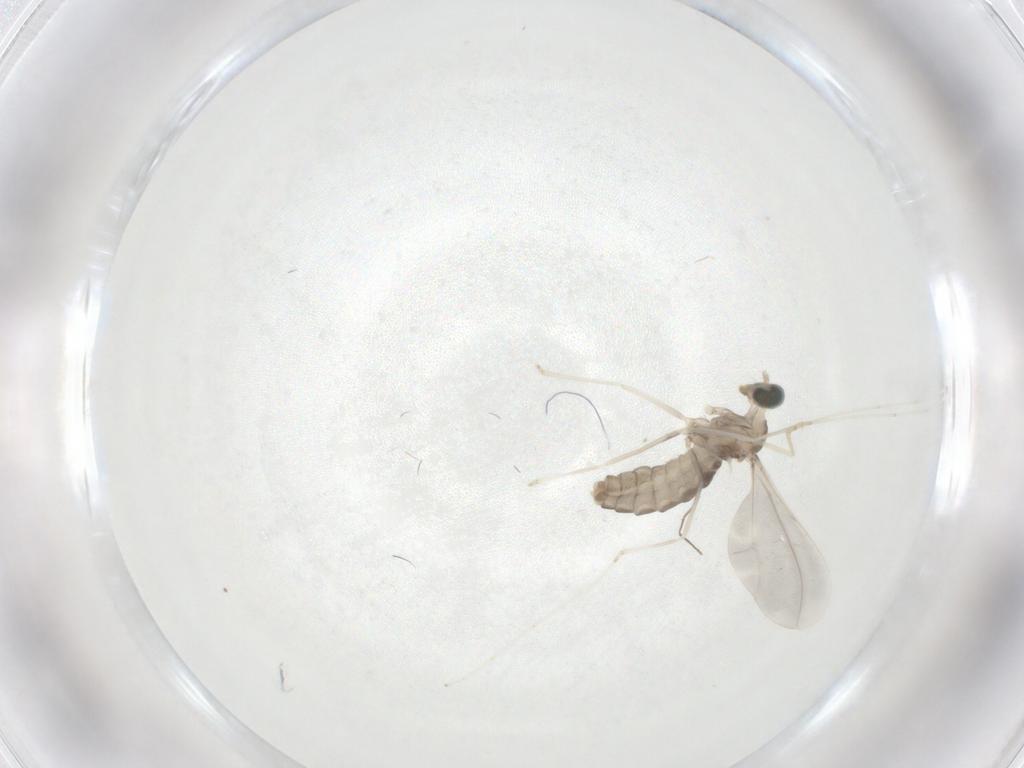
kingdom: Animalia
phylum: Arthropoda
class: Insecta
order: Diptera
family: Cecidomyiidae
